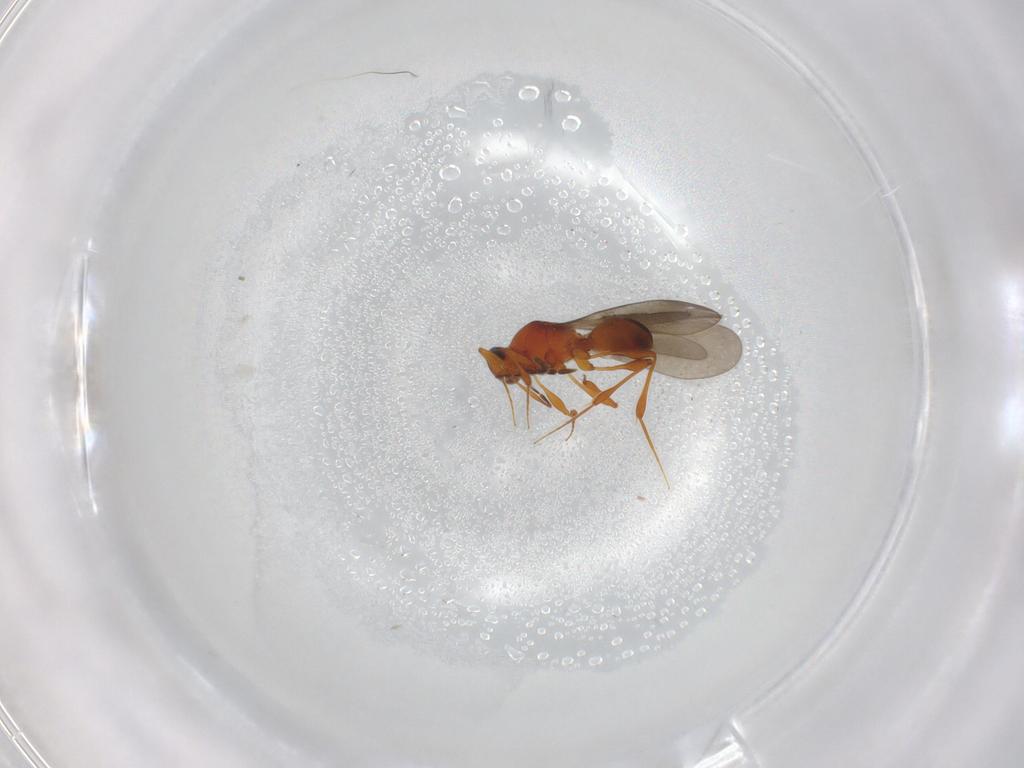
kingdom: Animalia
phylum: Arthropoda
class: Insecta
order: Hymenoptera
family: Platygastridae
